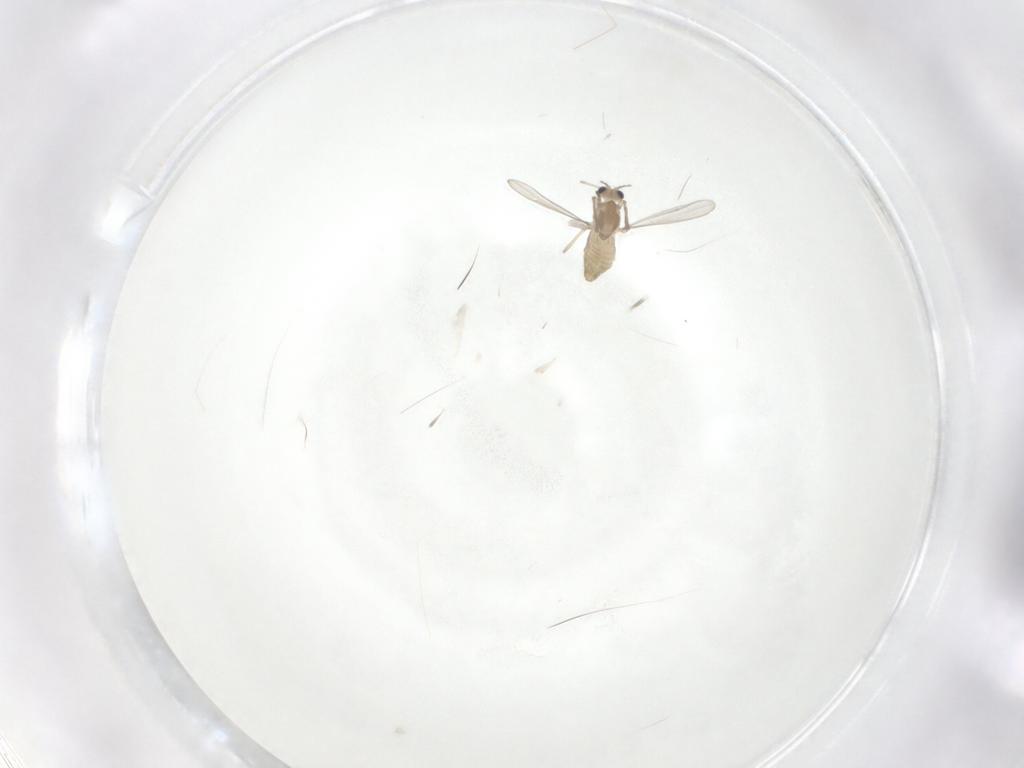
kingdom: Animalia
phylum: Arthropoda
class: Insecta
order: Diptera
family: Chironomidae
